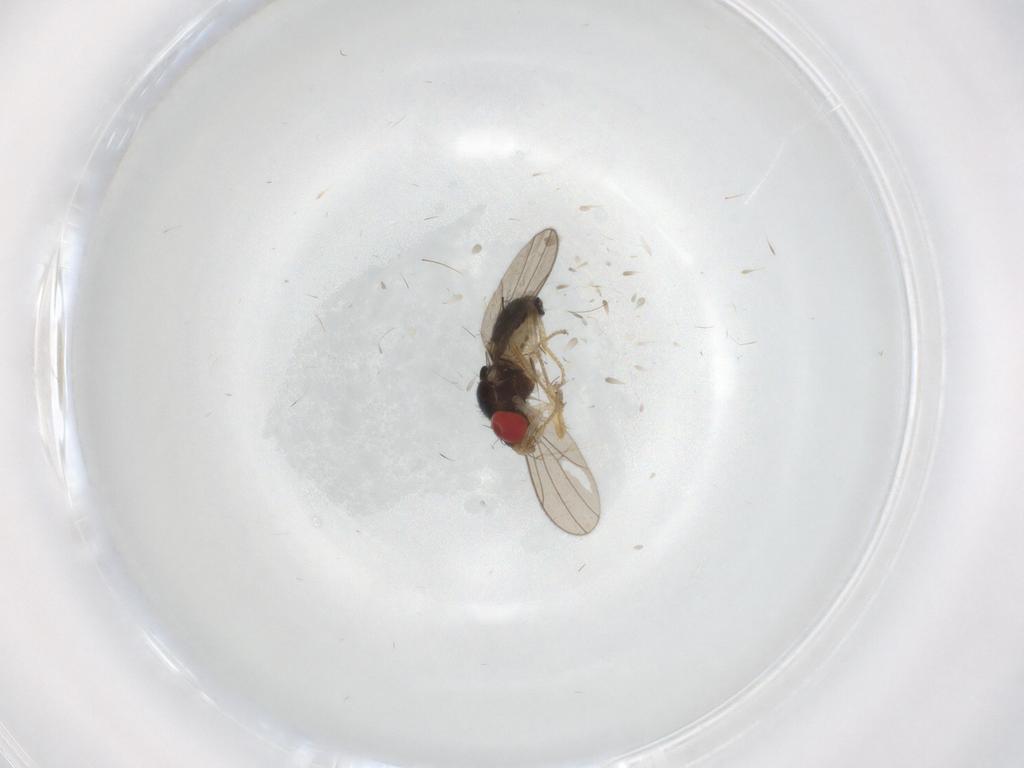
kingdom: Animalia
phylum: Arthropoda
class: Insecta
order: Diptera
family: Drosophilidae
